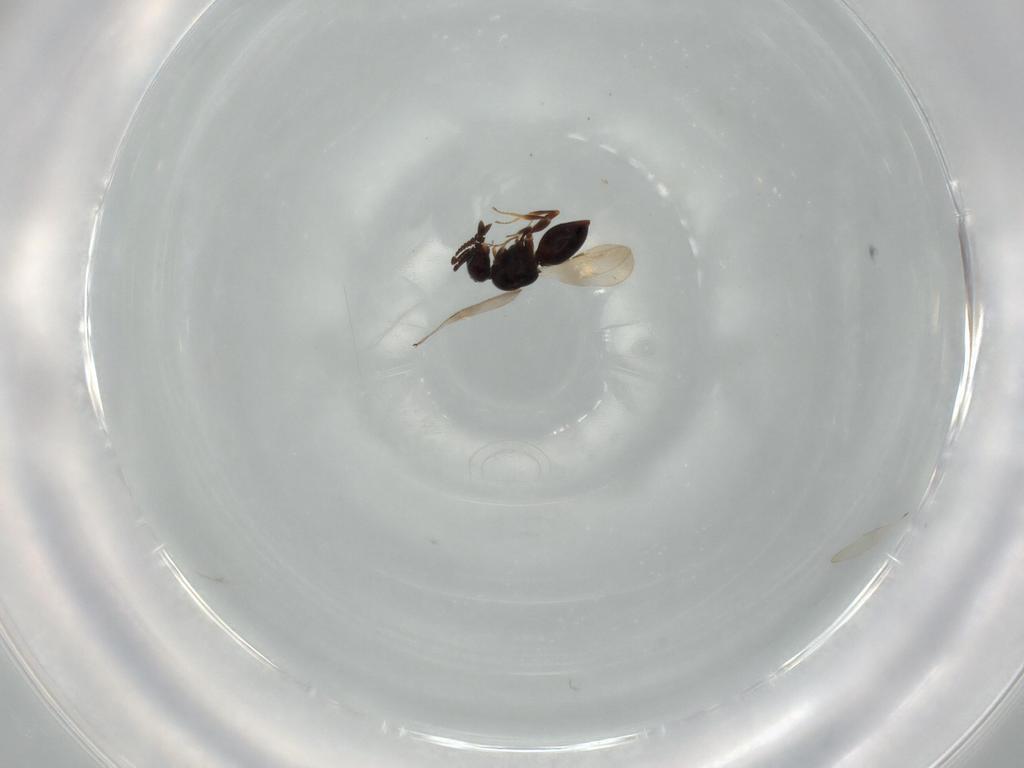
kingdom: Animalia
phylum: Arthropoda
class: Insecta
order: Hymenoptera
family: Ceraphronidae
